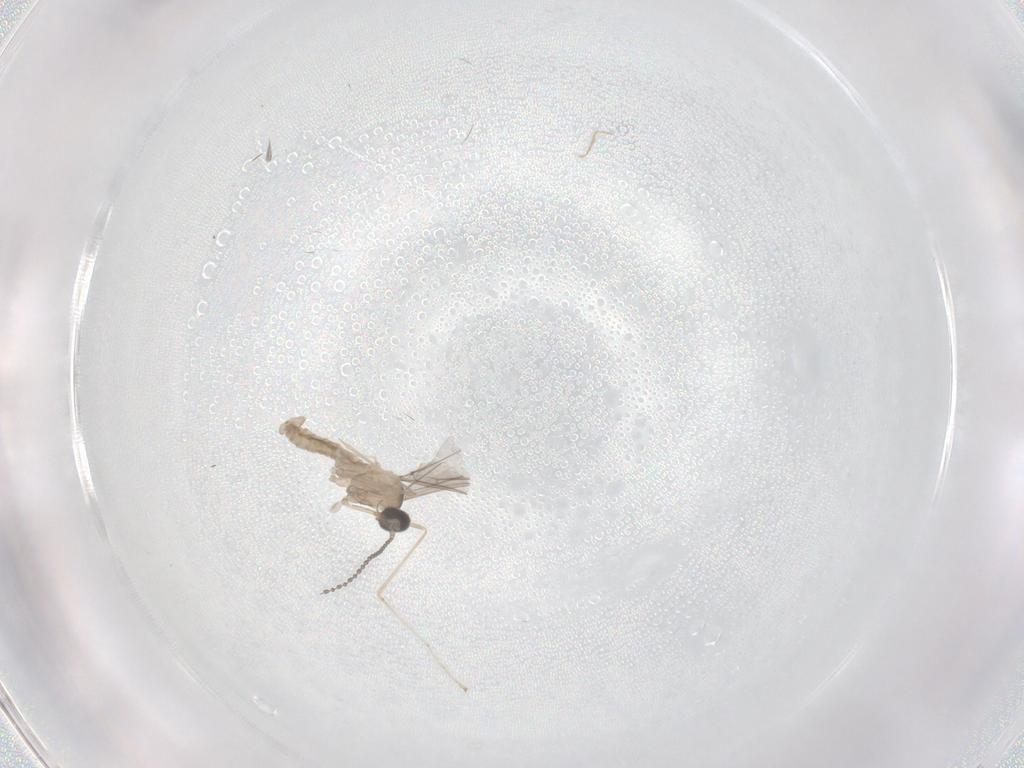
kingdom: Animalia
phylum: Arthropoda
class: Insecta
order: Diptera
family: Cecidomyiidae
